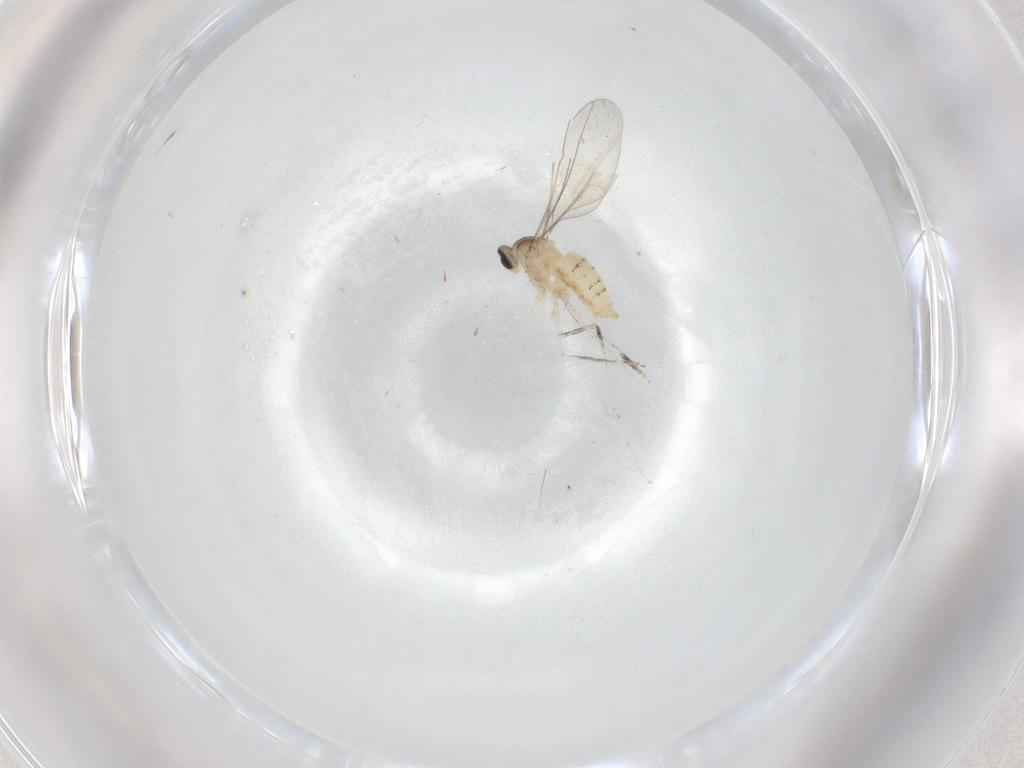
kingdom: Animalia
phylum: Arthropoda
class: Insecta
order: Diptera
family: Cecidomyiidae
